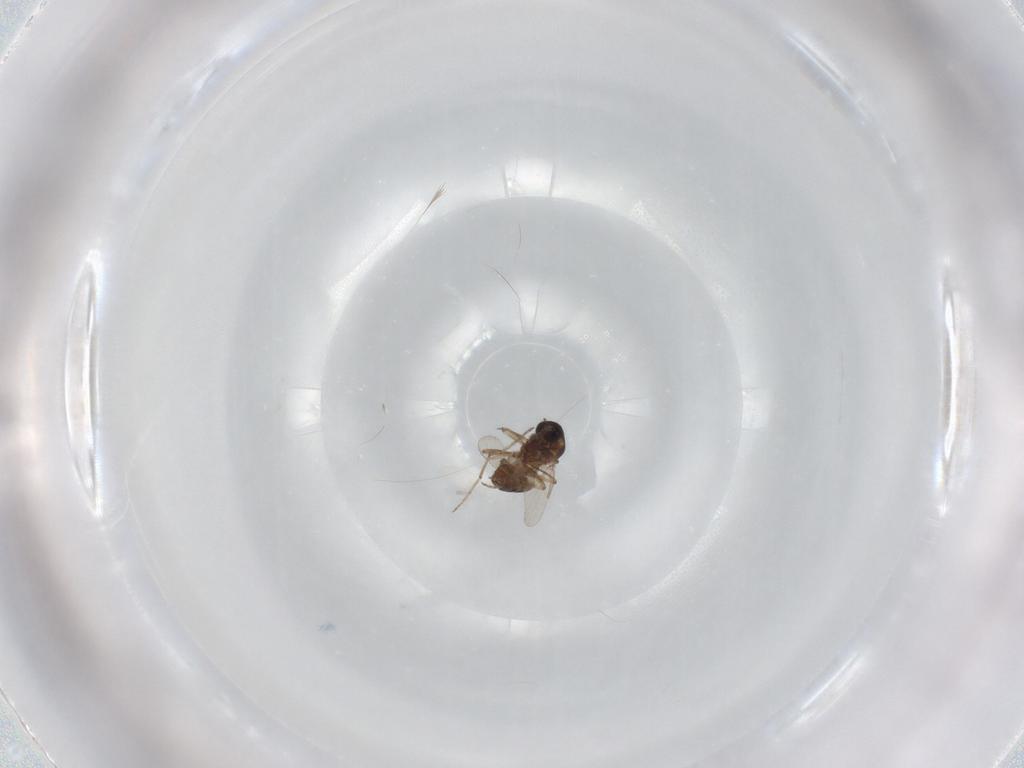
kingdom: Animalia
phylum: Arthropoda
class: Insecta
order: Diptera
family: Ceratopogonidae
